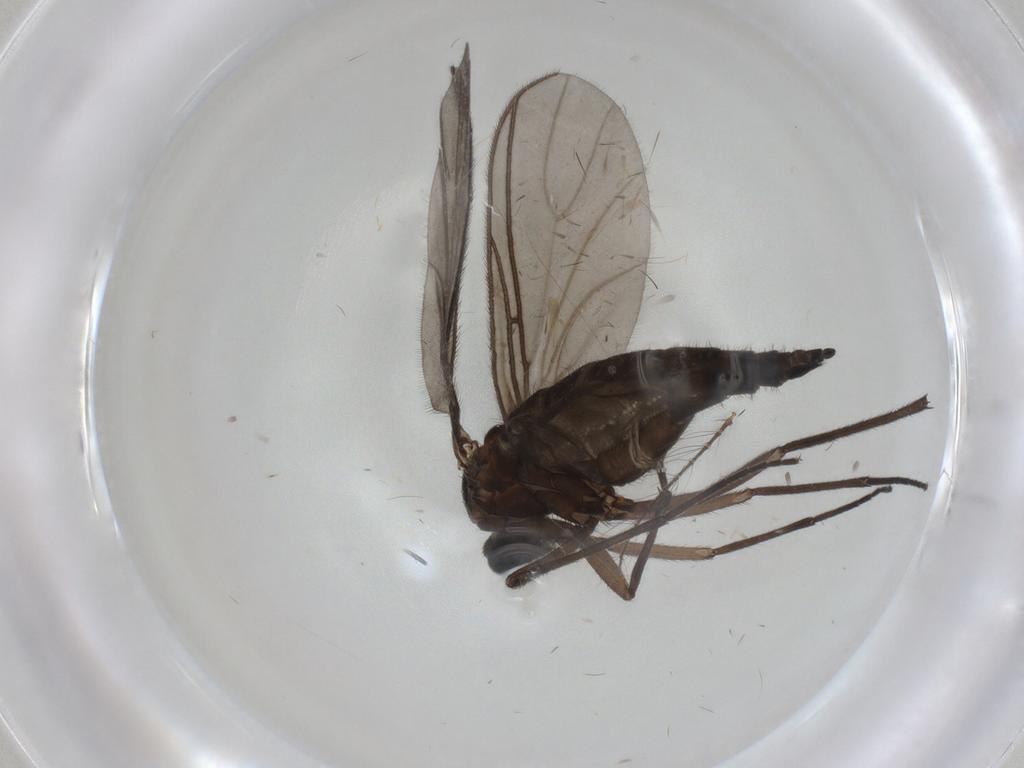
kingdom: Animalia
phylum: Arthropoda
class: Insecta
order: Diptera
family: Sciaridae
